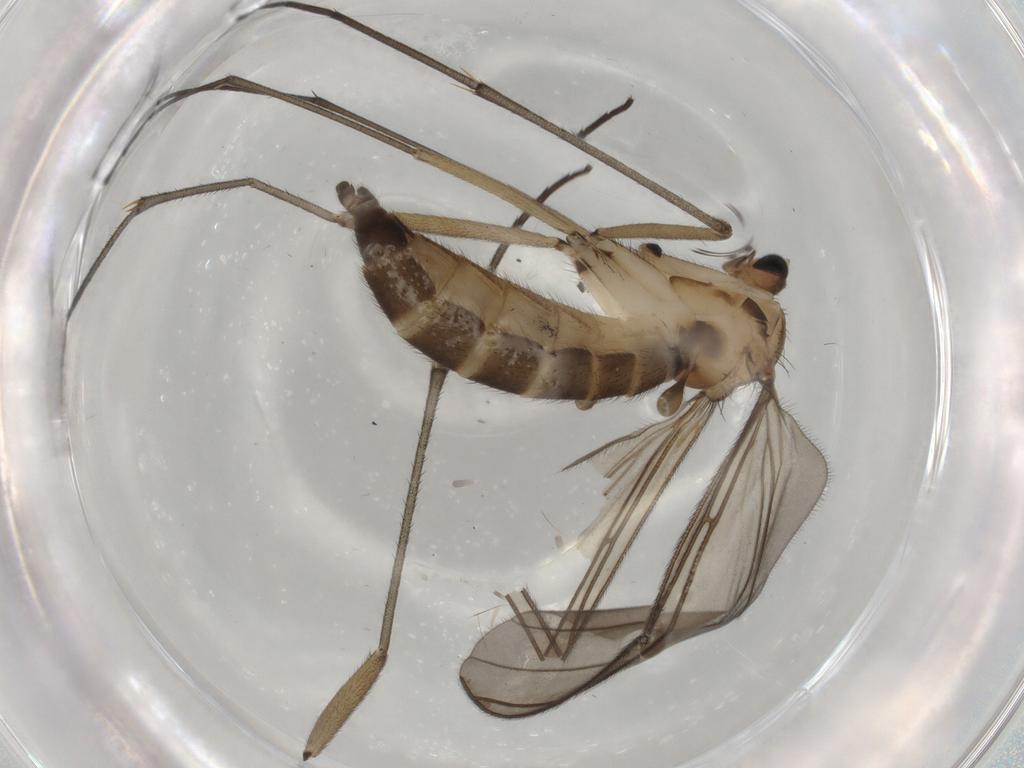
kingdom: Animalia
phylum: Arthropoda
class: Insecta
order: Diptera
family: Sciaridae
